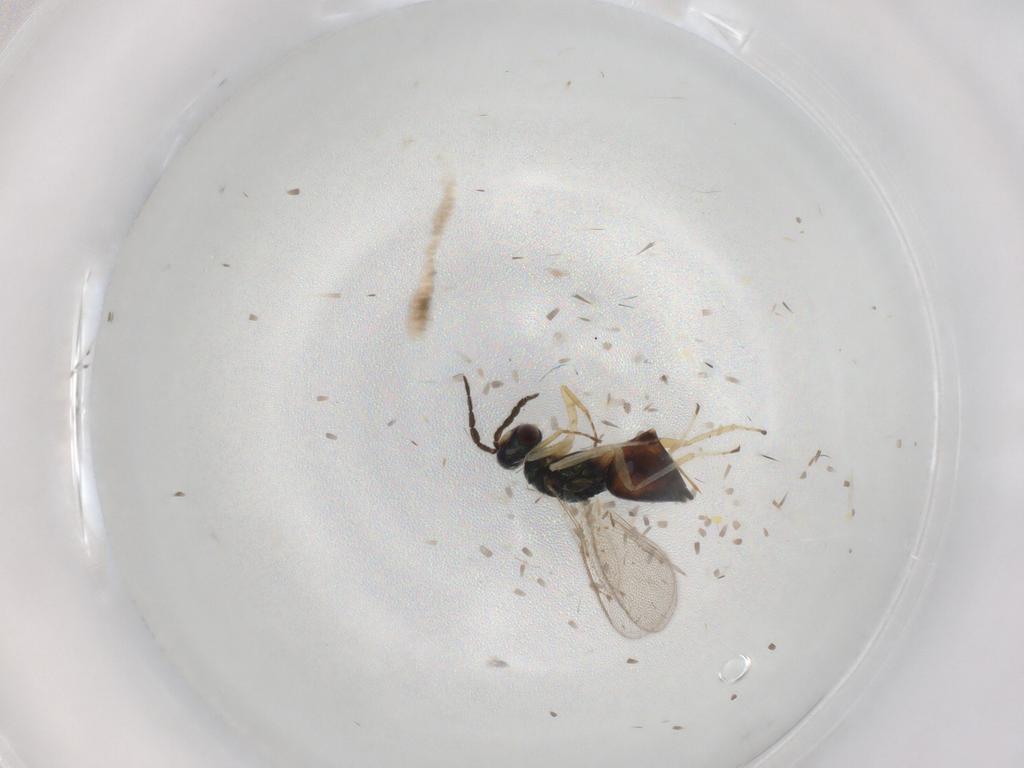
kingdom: Animalia
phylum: Arthropoda
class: Insecta
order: Hymenoptera
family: Eulophidae
